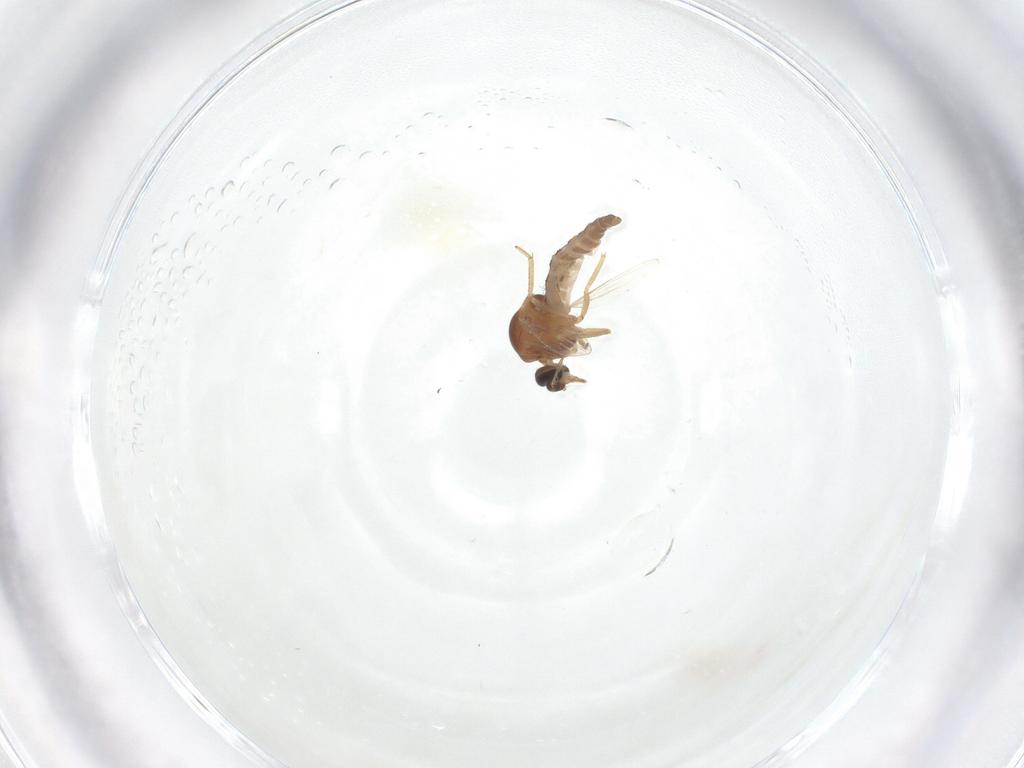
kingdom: Animalia
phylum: Arthropoda
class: Insecta
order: Diptera
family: Ceratopogonidae
